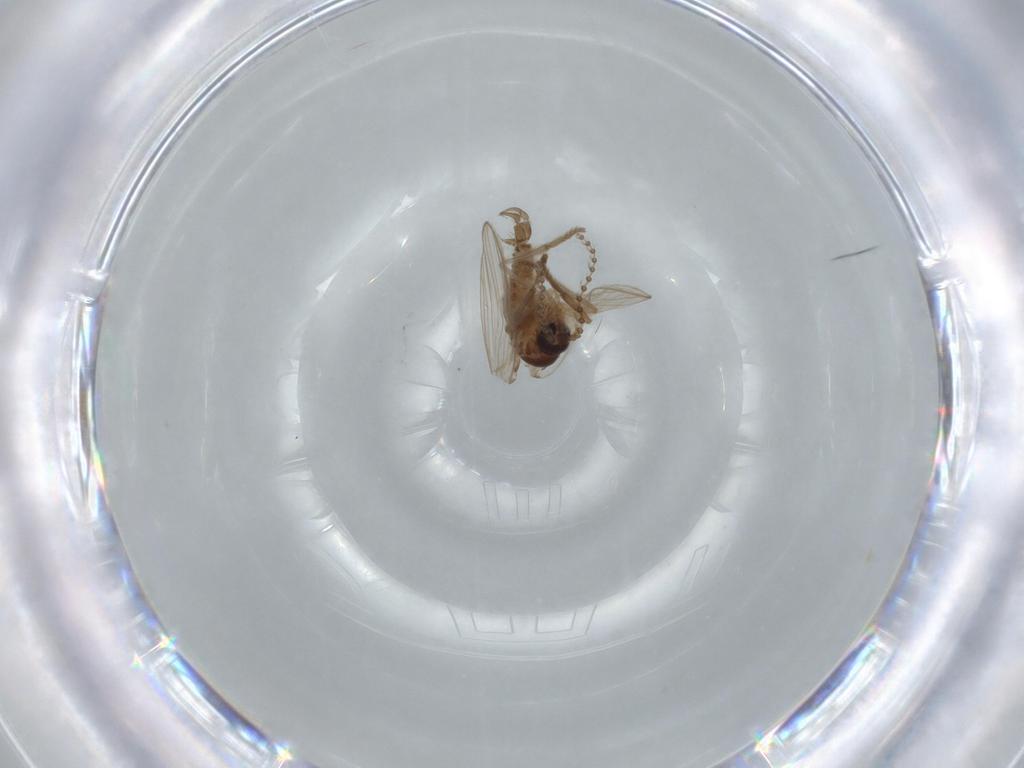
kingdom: Animalia
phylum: Arthropoda
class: Insecta
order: Diptera
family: Psychodidae
